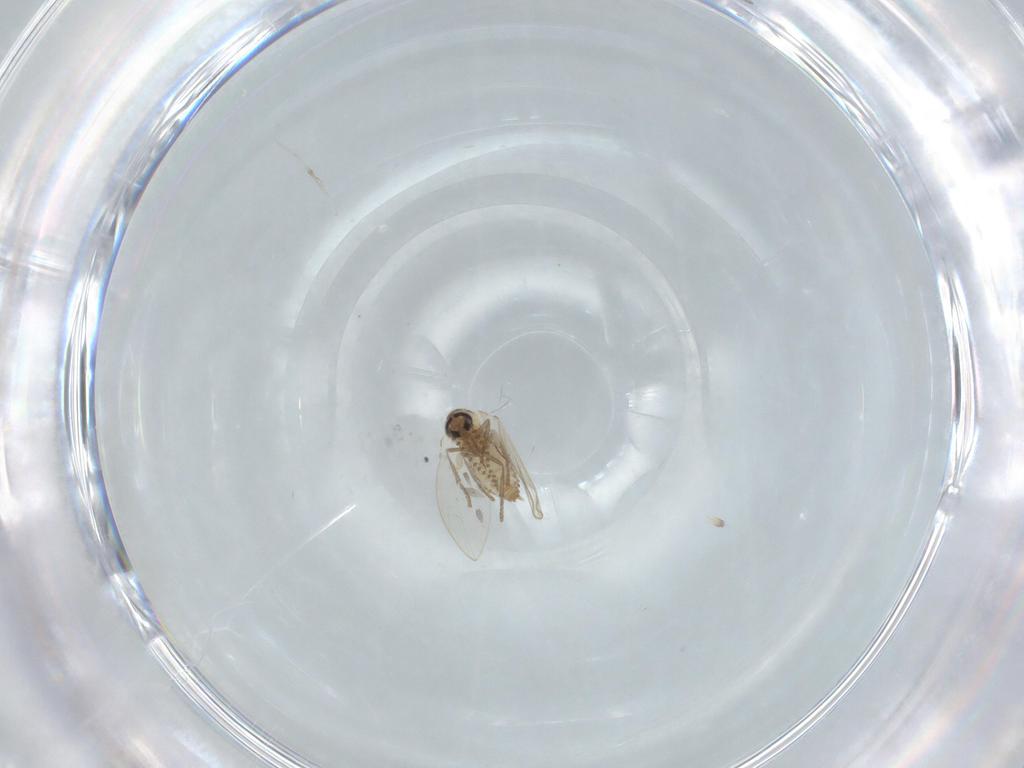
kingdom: Animalia
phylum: Arthropoda
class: Insecta
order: Diptera
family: Psychodidae
